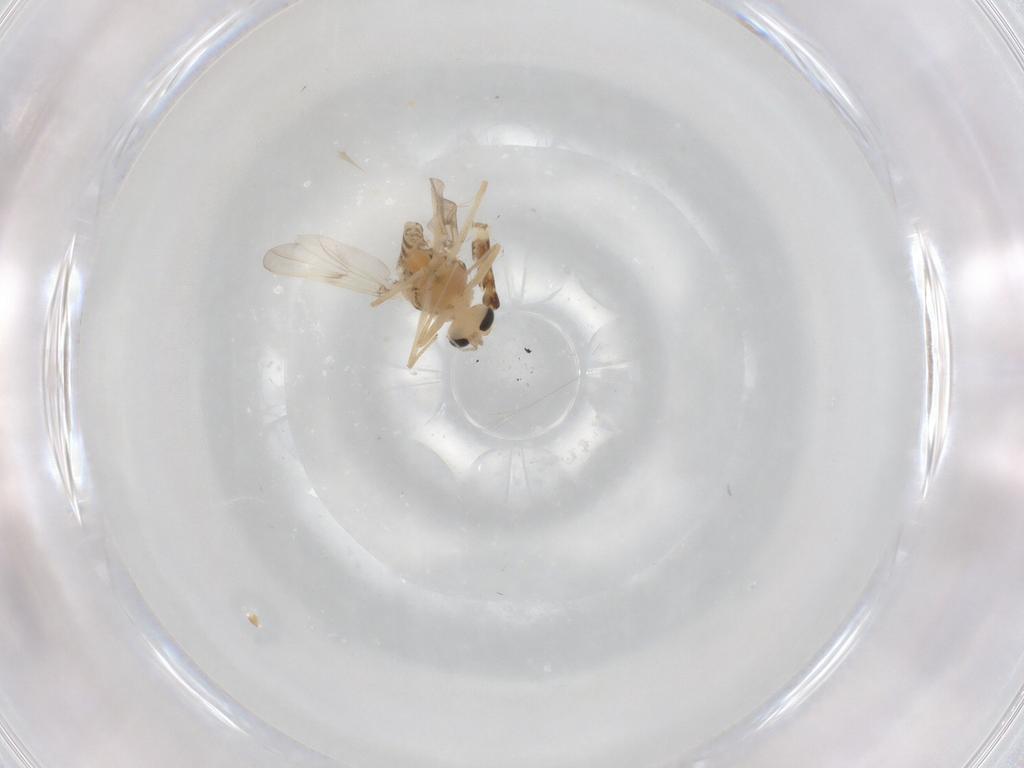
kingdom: Animalia
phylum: Arthropoda
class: Insecta
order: Diptera
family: Chironomidae
